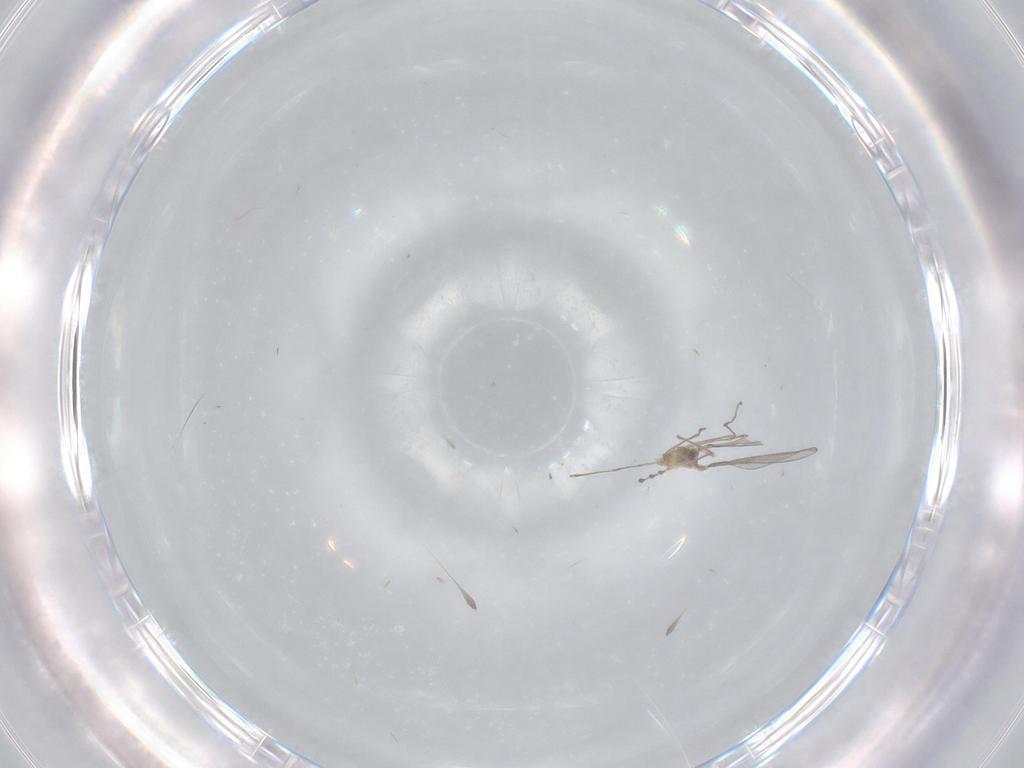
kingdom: Animalia
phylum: Arthropoda
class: Insecta
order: Diptera
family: Cecidomyiidae
